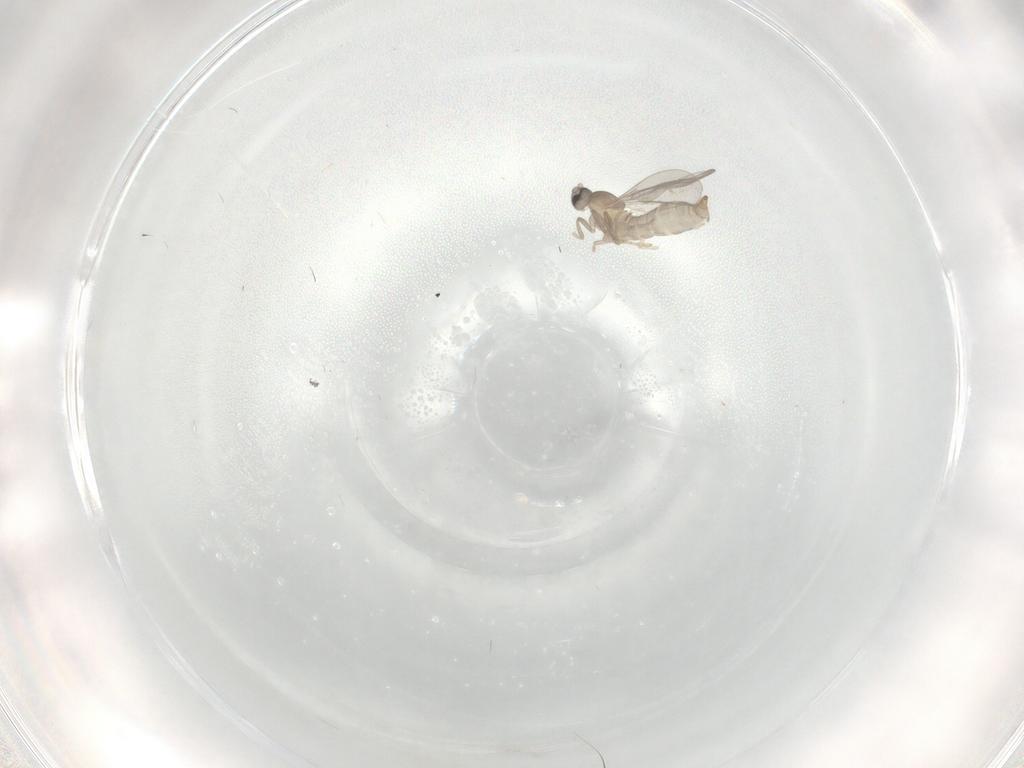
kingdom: Animalia
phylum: Arthropoda
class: Insecta
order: Diptera
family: Cecidomyiidae
